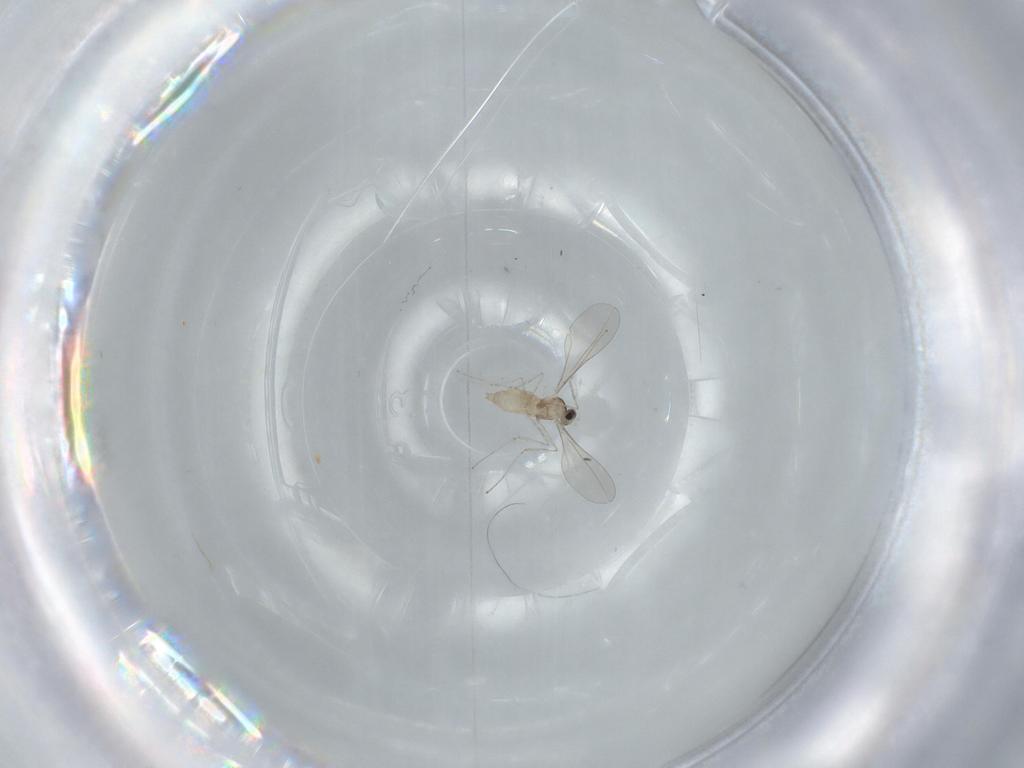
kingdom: Animalia
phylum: Arthropoda
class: Insecta
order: Diptera
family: Cecidomyiidae
